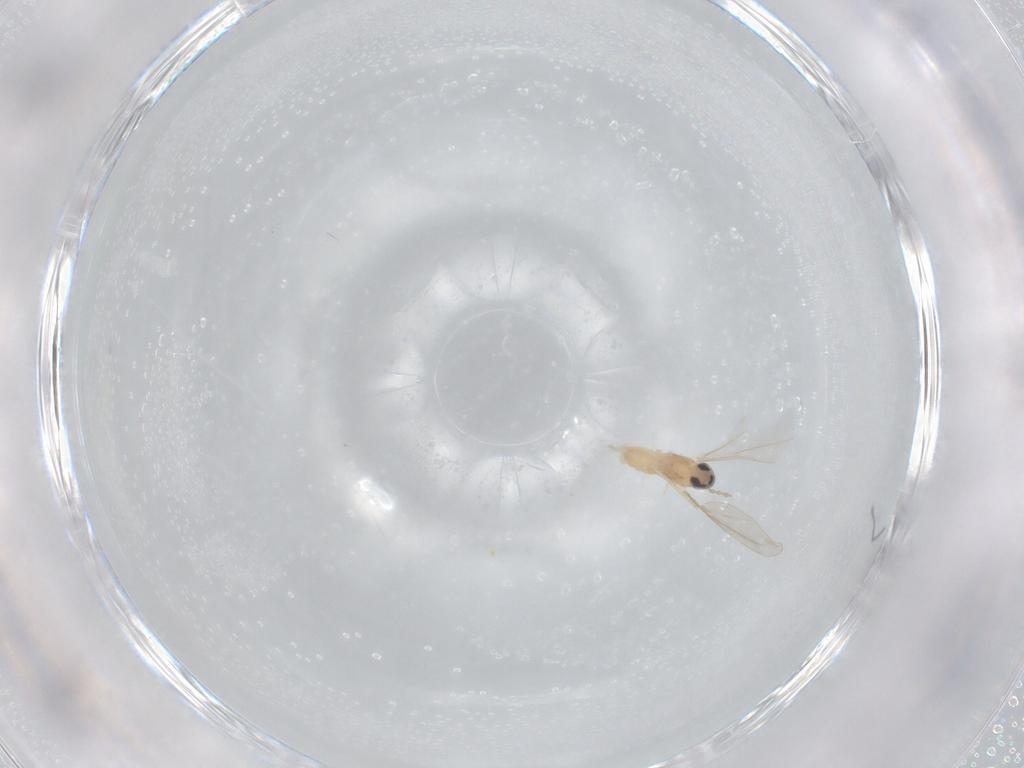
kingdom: Animalia
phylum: Arthropoda
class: Insecta
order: Diptera
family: Cecidomyiidae
